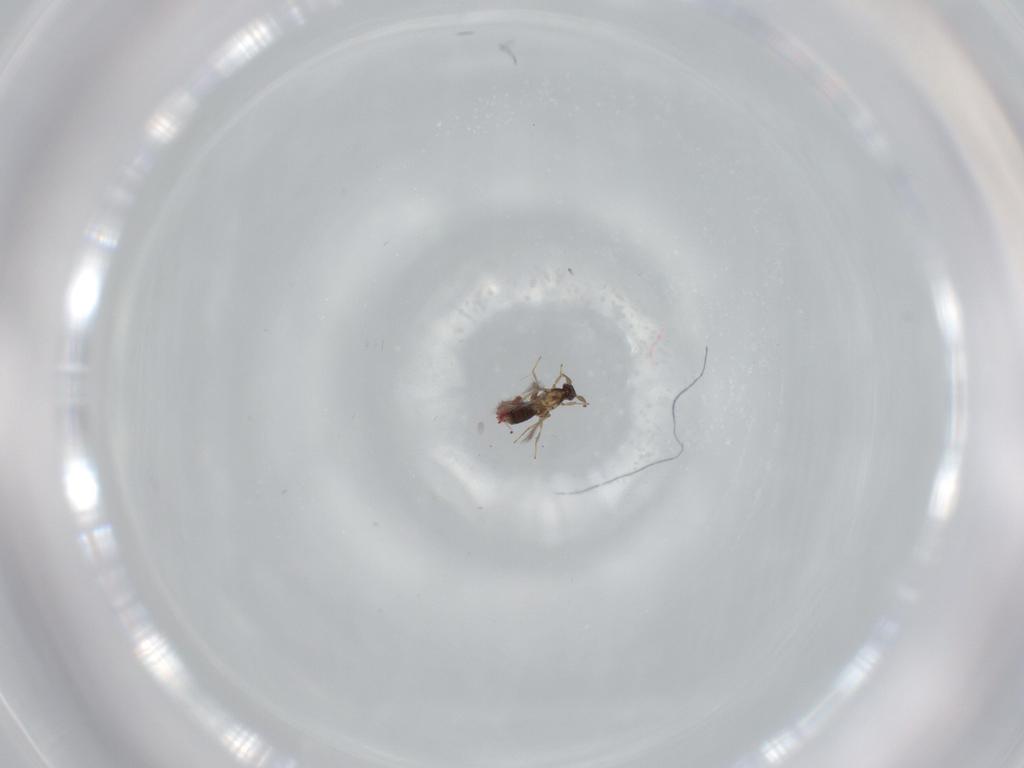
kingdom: Animalia
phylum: Arthropoda
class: Insecta
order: Hymenoptera
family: Mymaridae
